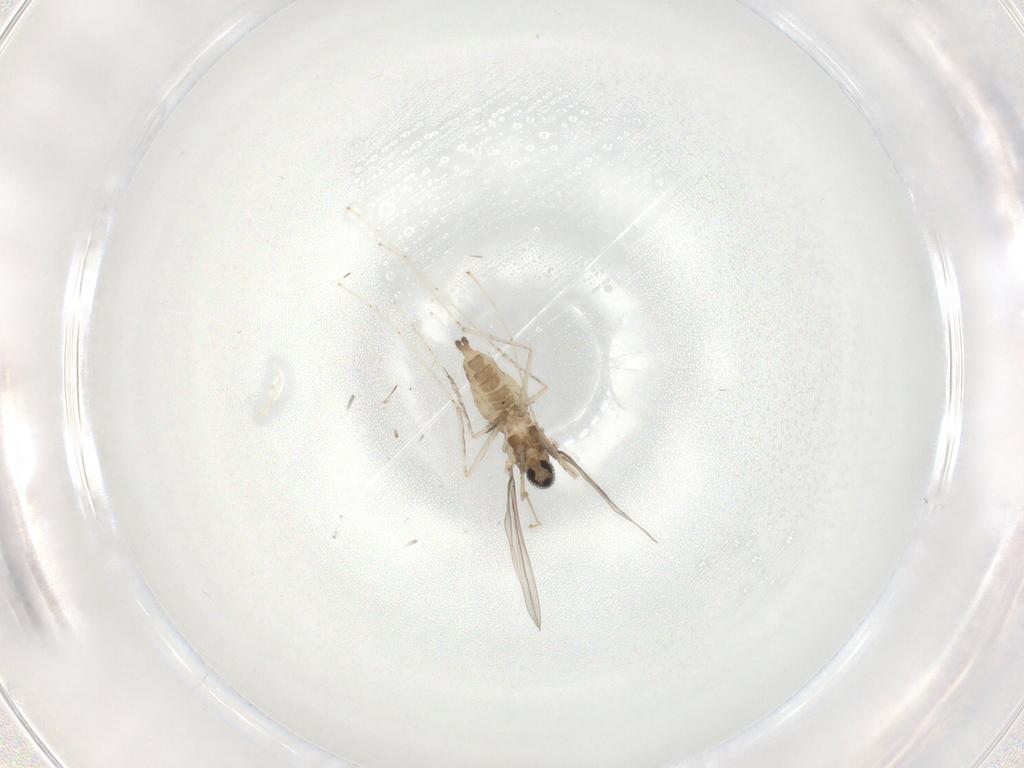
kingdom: Animalia
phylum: Arthropoda
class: Insecta
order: Diptera
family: Cecidomyiidae
